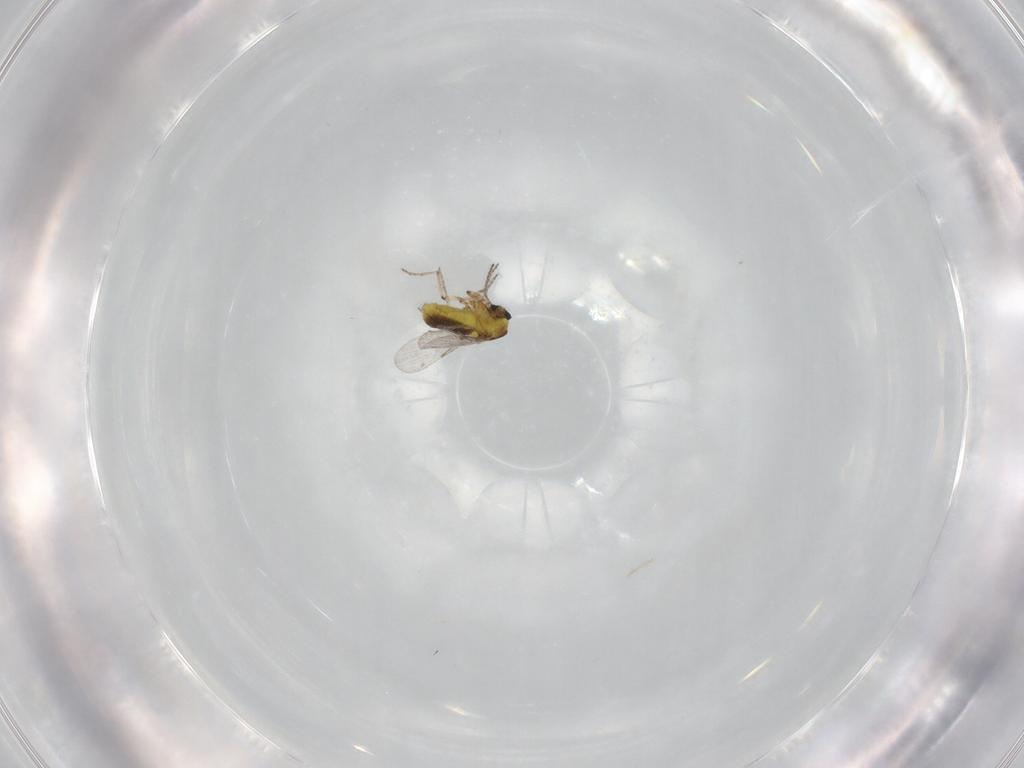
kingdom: Animalia
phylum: Arthropoda
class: Insecta
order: Diptera
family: Ceratopogonidae
